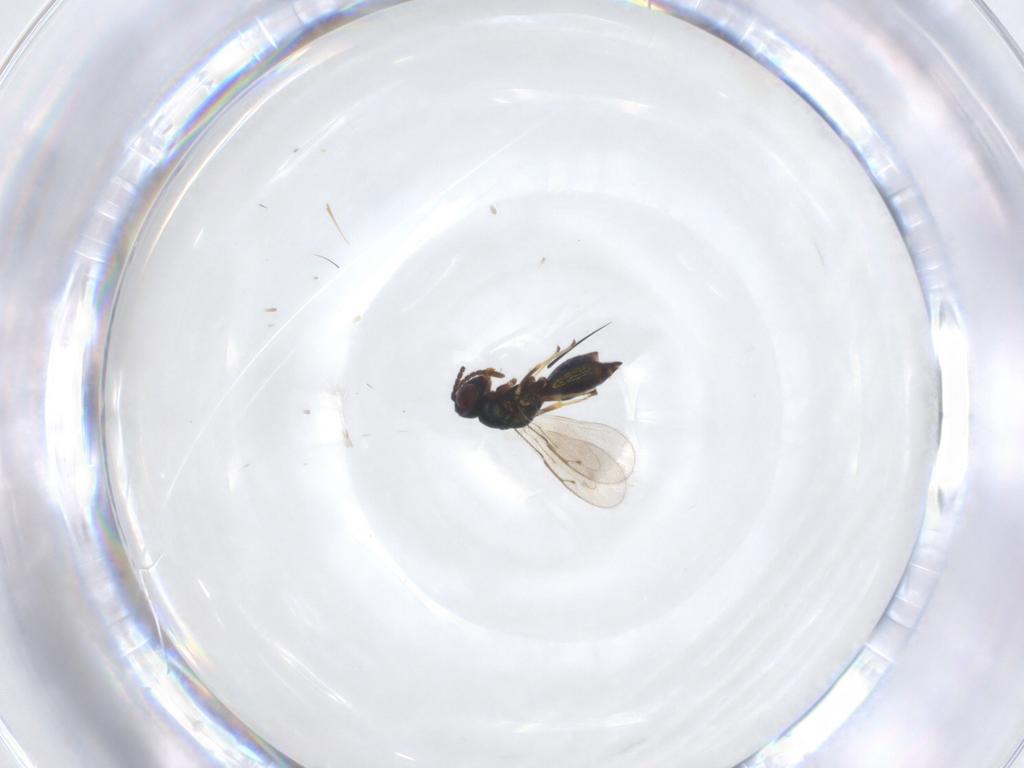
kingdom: Animalia
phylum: Arthropoda
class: Insecta
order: Hymenoptera
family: Pteromalidae
